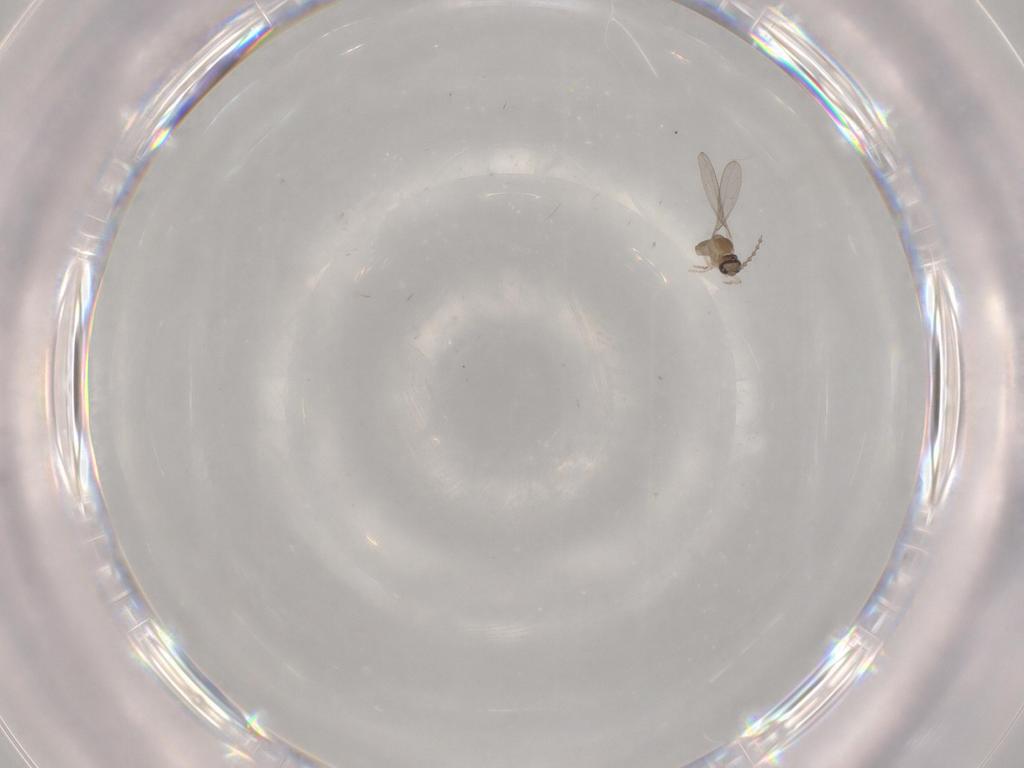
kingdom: Animalia
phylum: Arthropoda
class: Insecta
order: Diptera
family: Cecidomyiidae
